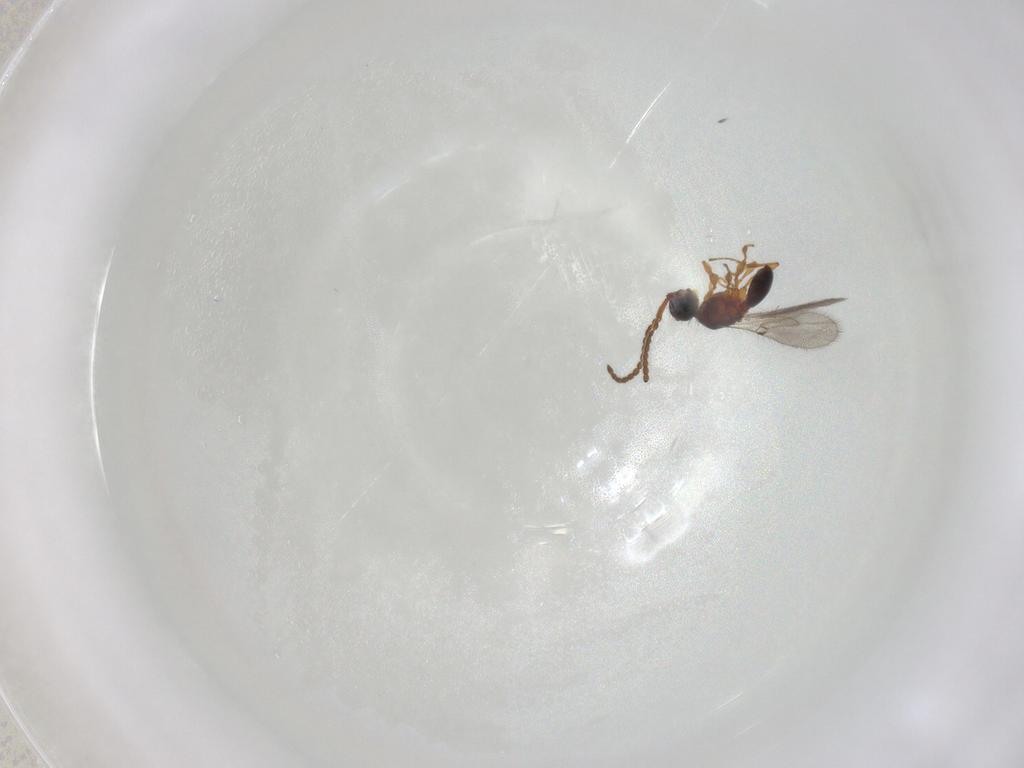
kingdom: Animalia
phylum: Arthropoda
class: Insecta
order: Hymenoptera
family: Diapriidae
